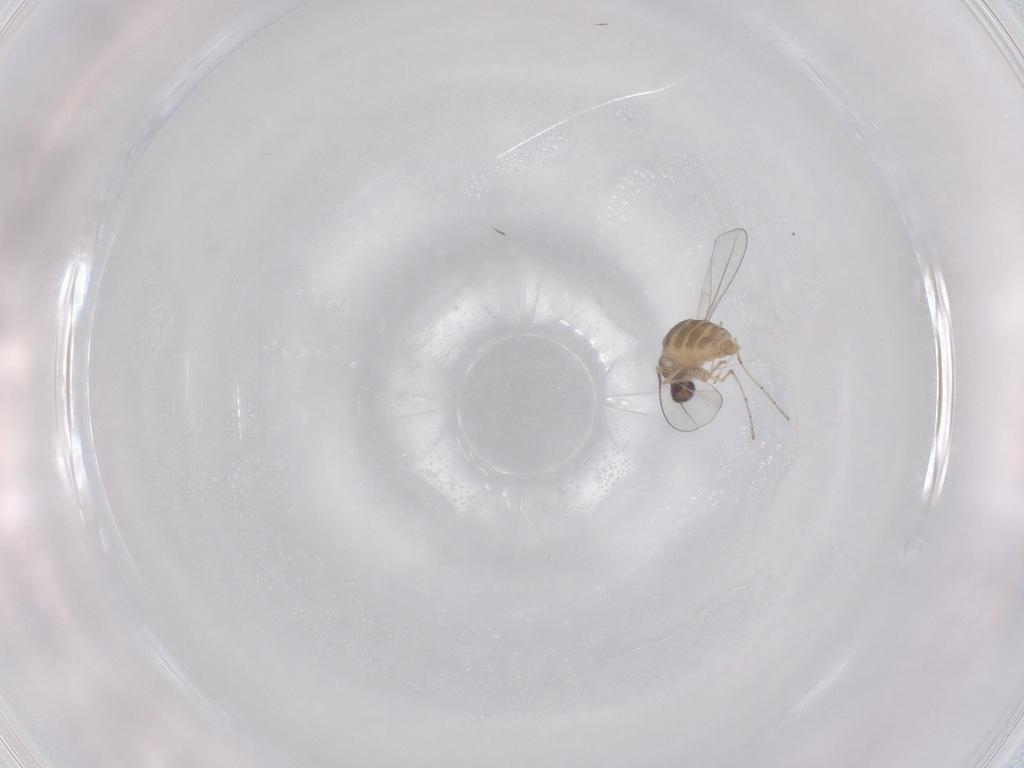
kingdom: Animalia
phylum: Arthropoda
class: Insecta
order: Diptera
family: Cecidomyiidae
